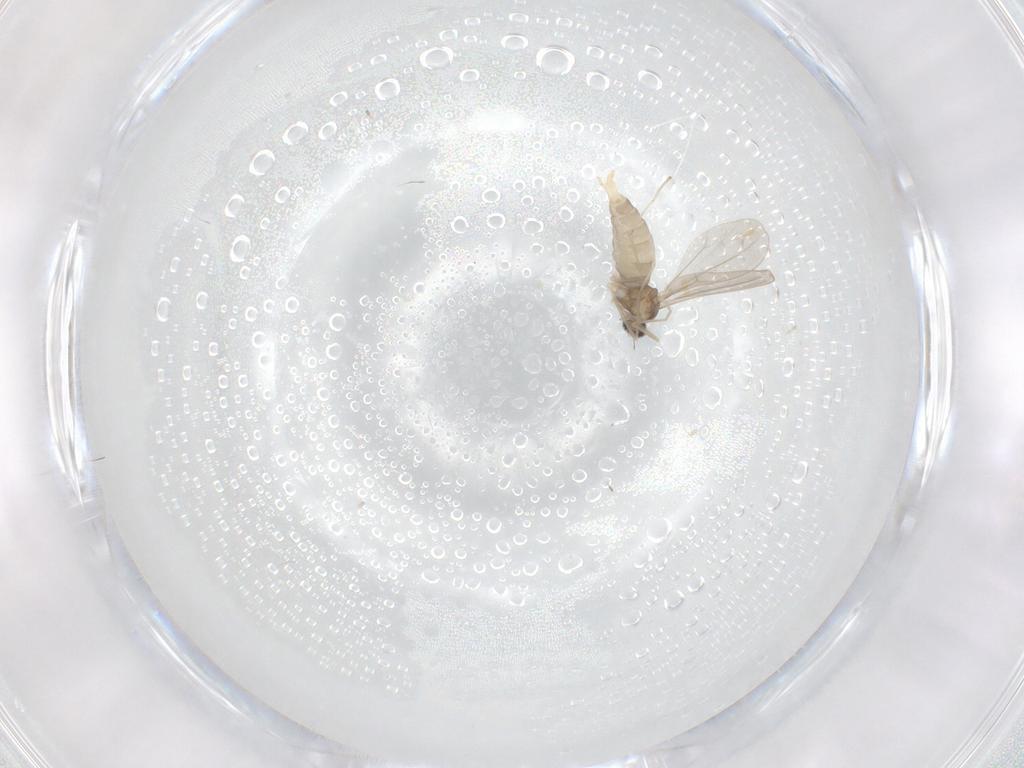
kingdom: Animalia
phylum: Arthropoda
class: Insecta
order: Diptera
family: Cecidomyiidae
